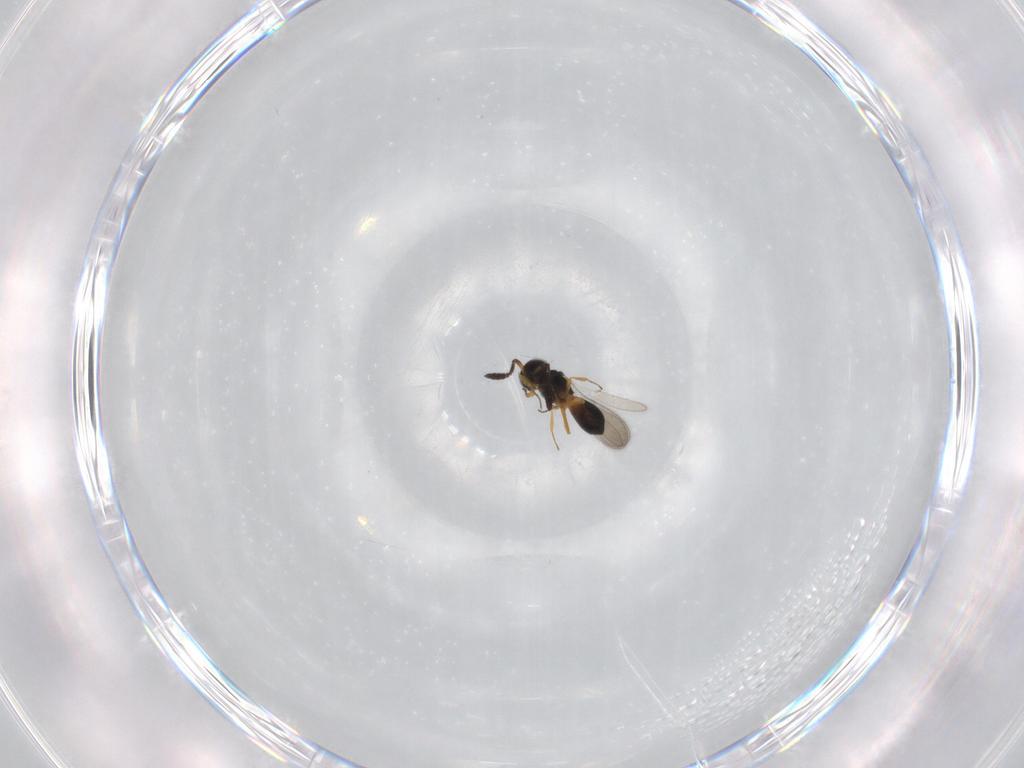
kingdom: Animalia
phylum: Arthropoda
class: Insecta
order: Hymenoptera
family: Scelionidae
